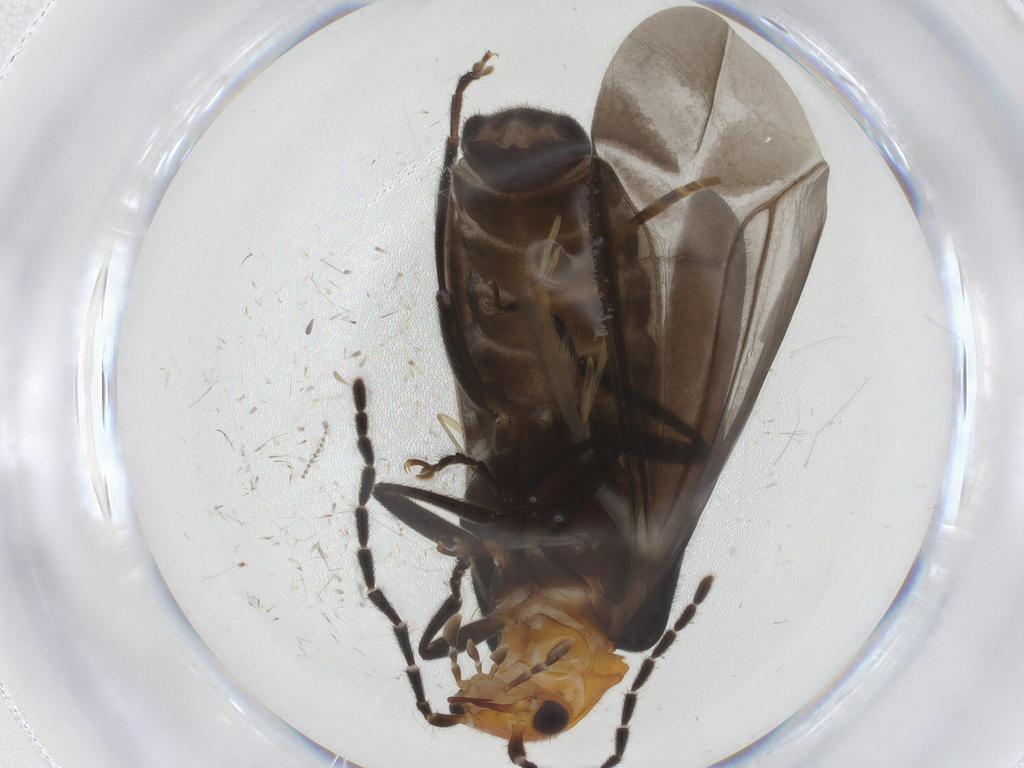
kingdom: Animalia
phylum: Arthropoda
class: Insecta
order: Coleoptera
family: Cantharidae
